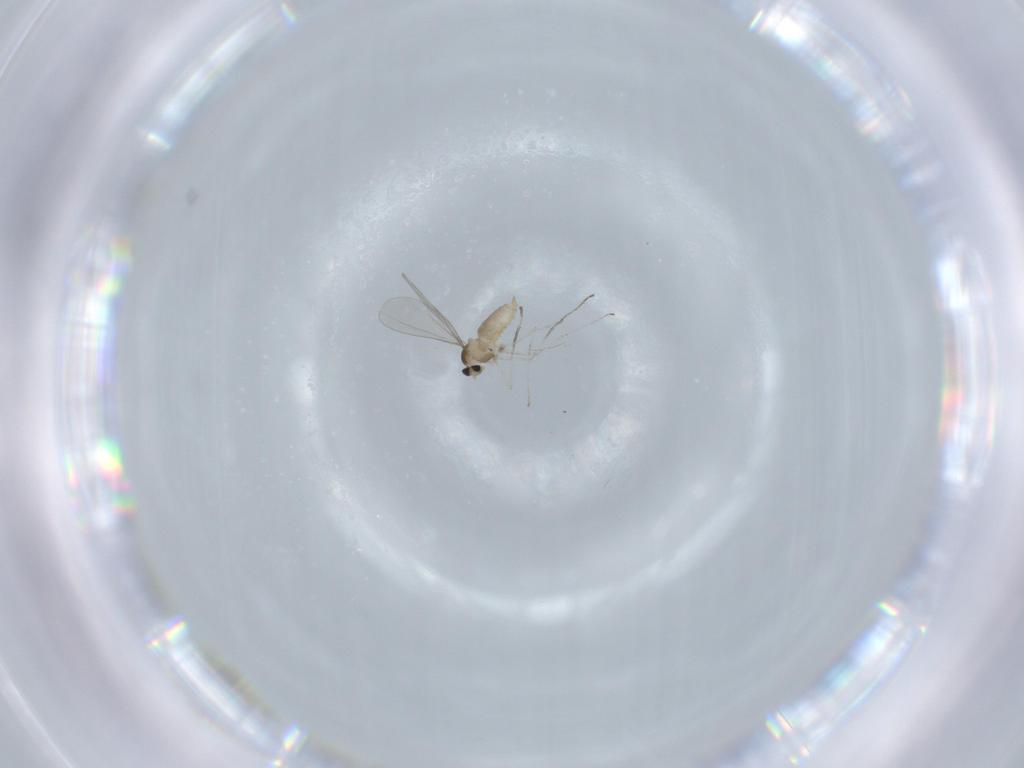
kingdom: Animalia
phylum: Arthropoda
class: Insecta
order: Diptera
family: Cecidomyiidae
